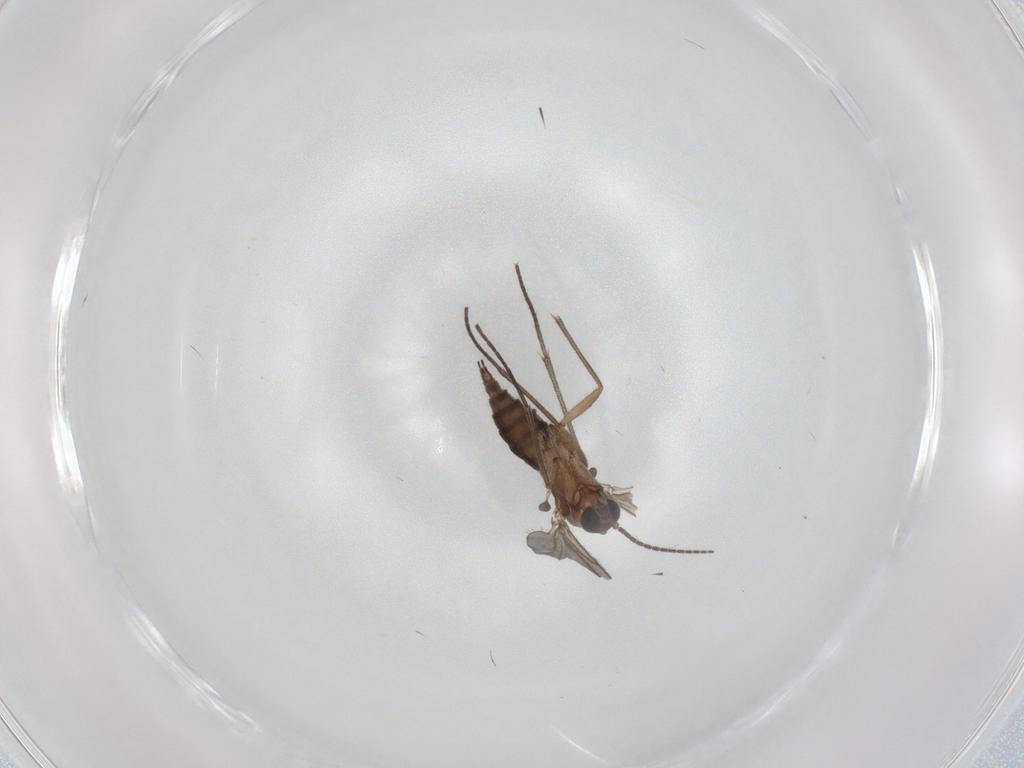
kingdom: Animalia
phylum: Arthropoda
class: Insecta
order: Diptera
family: Sciaridae
